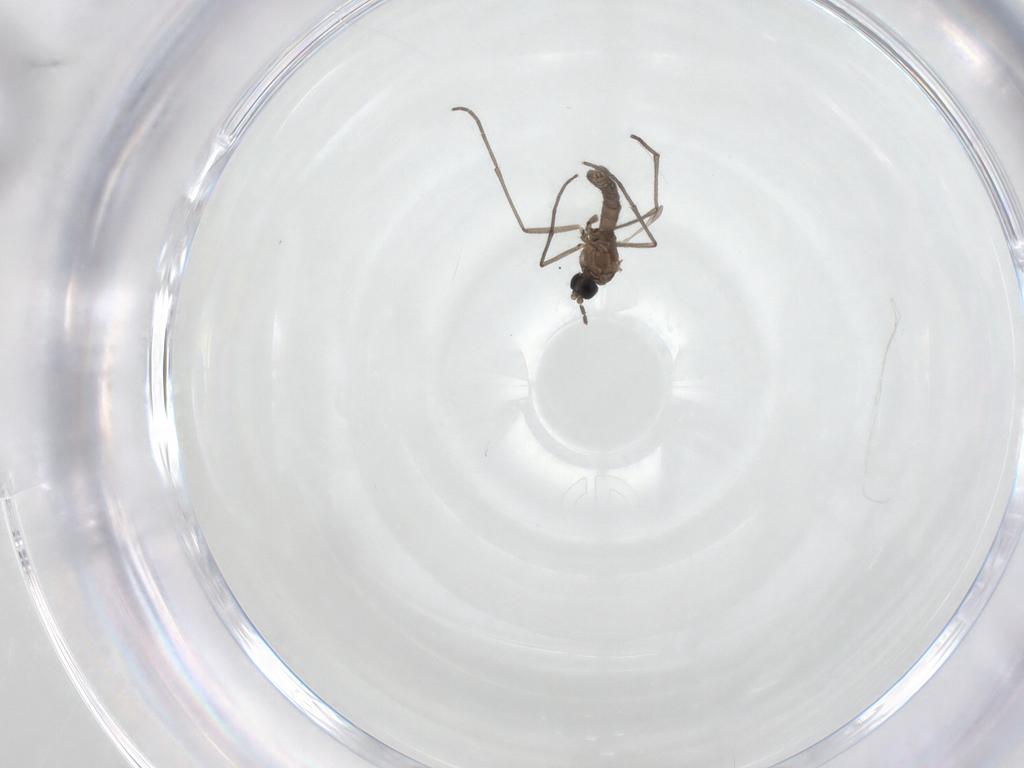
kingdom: Animalia
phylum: Arthropoda
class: Insecta
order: Diptera
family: Sciaridae
